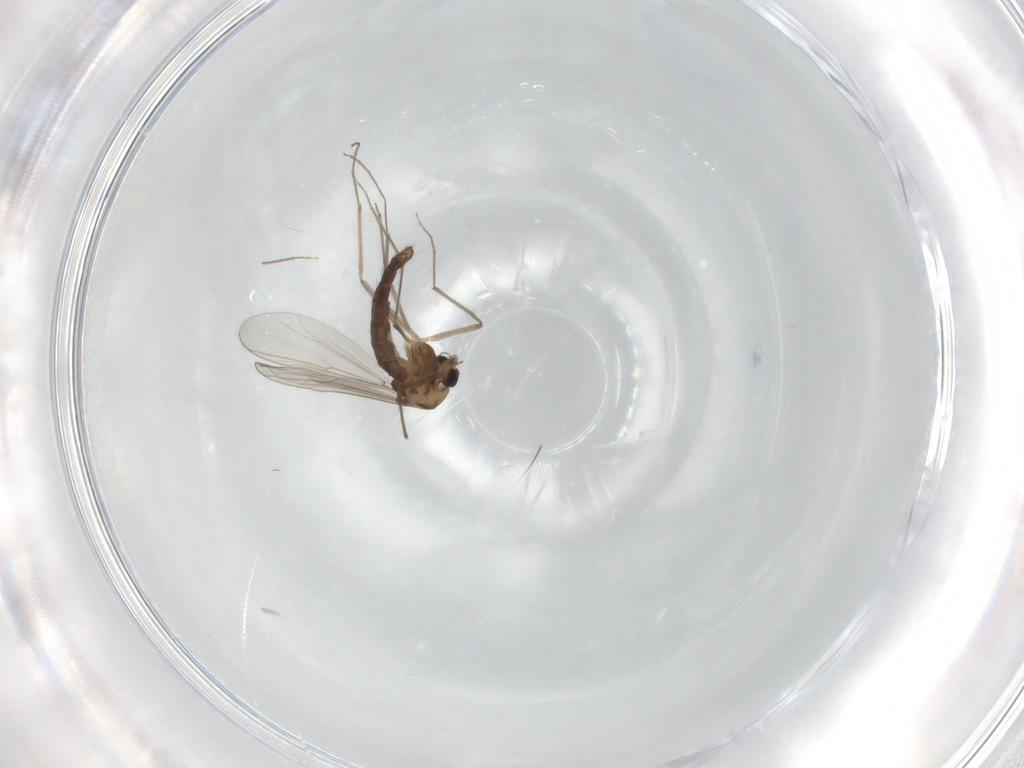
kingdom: Animalia
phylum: Arthropoda
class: Insecta
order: Diptera
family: Chironomidae
